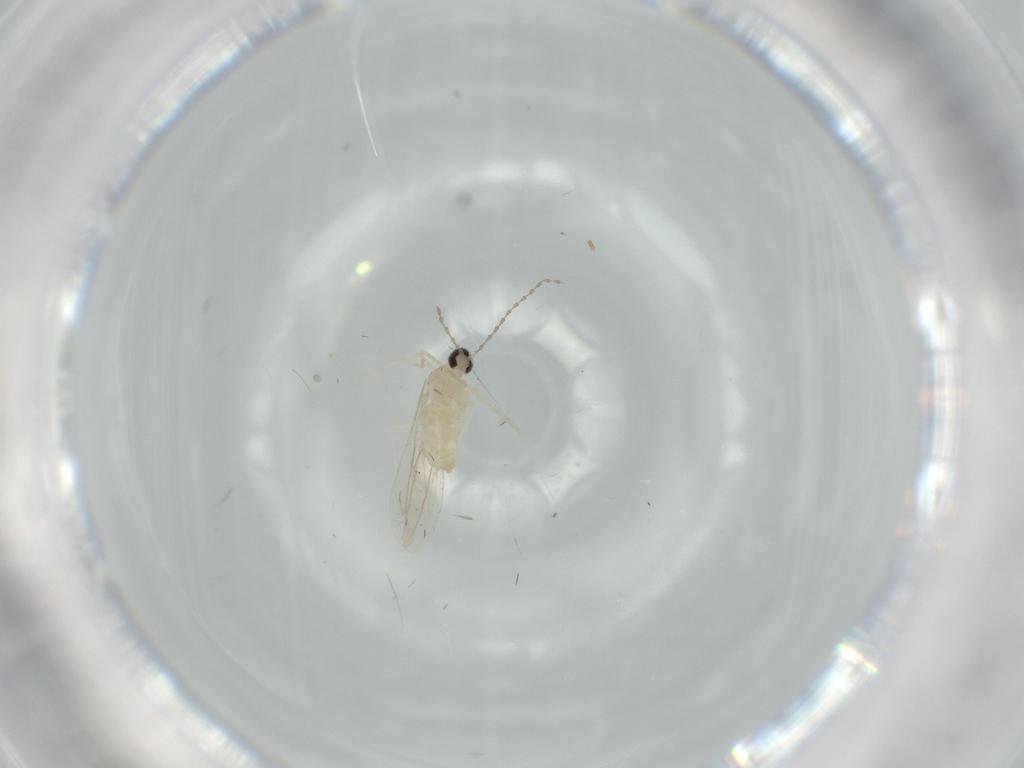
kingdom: Animalia
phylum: Arthropoda
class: Insecta
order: Diptera
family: Cecidomyiidae
